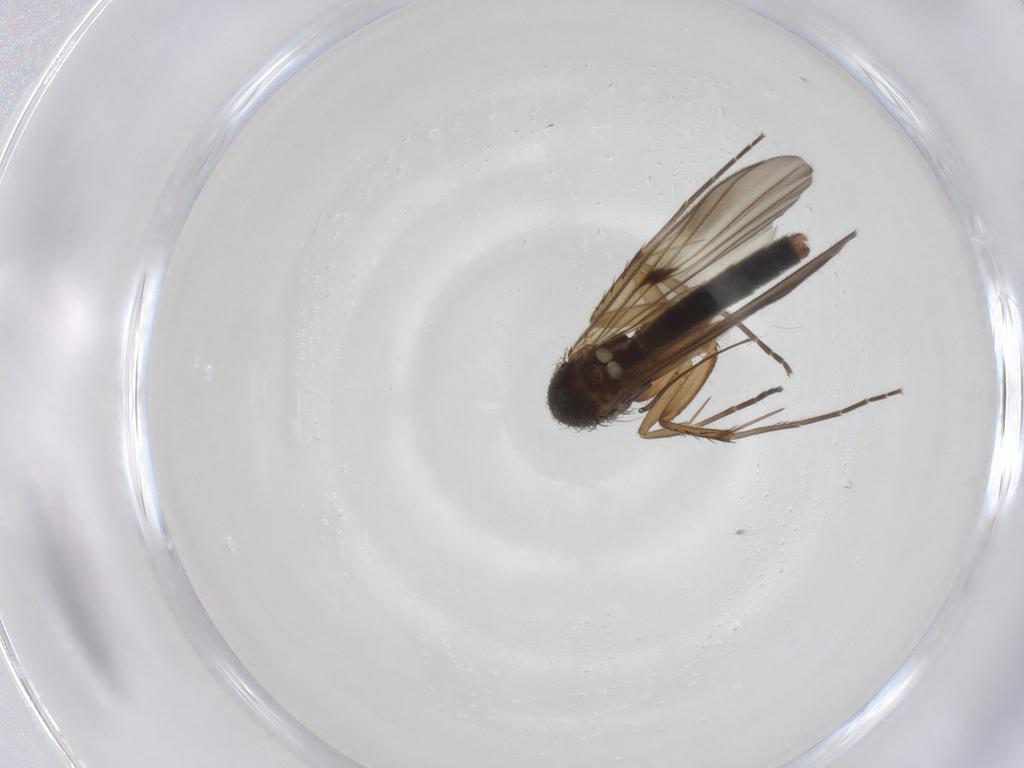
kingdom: Animalia
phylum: Arthropoda
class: Insecta
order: Diptera
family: Mycetophilidae
